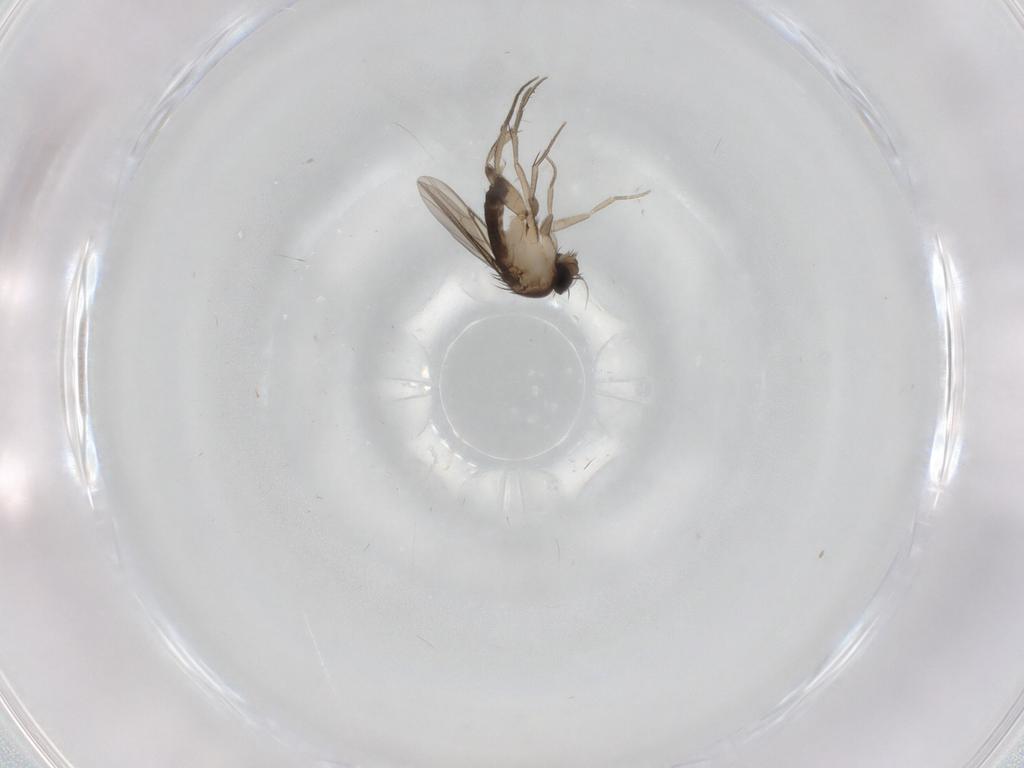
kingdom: Animalia
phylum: Arthropoda
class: Insecta
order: Diptera
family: Phoridae
